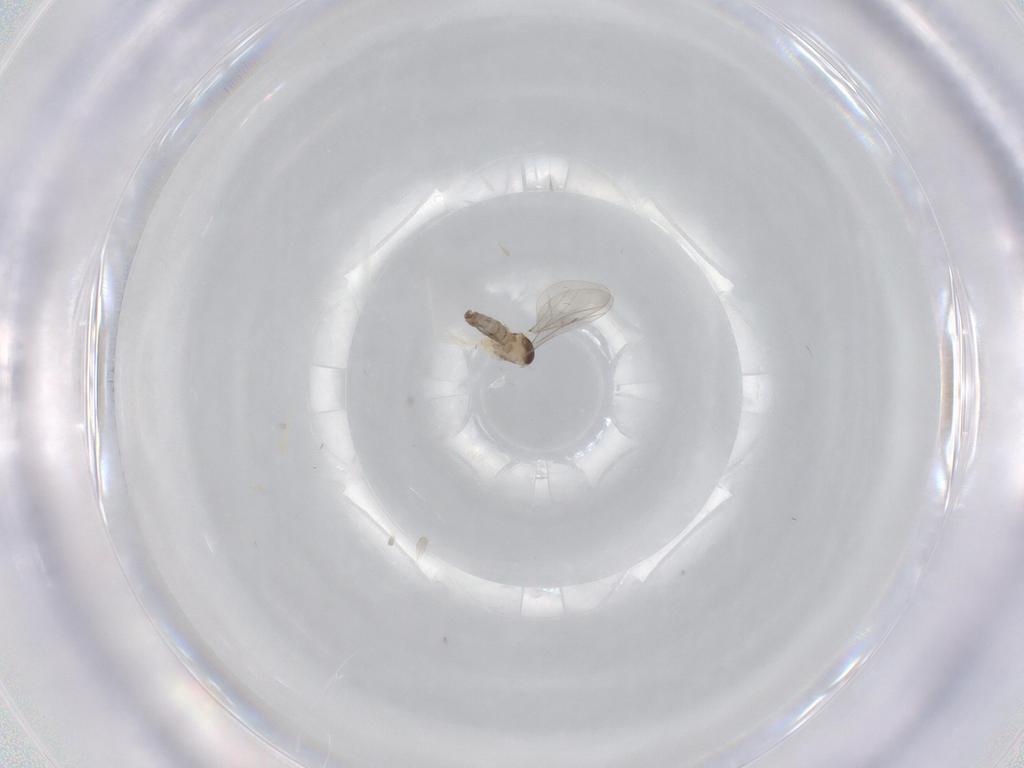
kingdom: Animalia
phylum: Arthropoda
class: Insecta
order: Diptera
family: Cecidomyiidae
